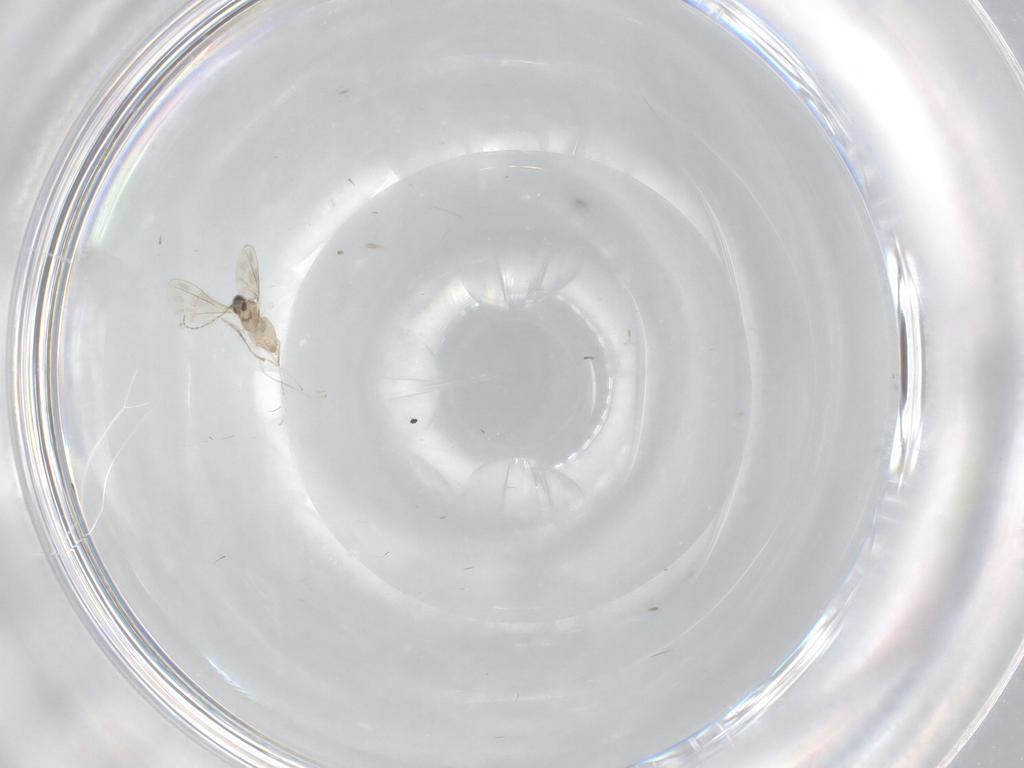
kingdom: Animalia
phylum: Arthropoda
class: Insecta
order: Diptera
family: Cecidomyiidae
